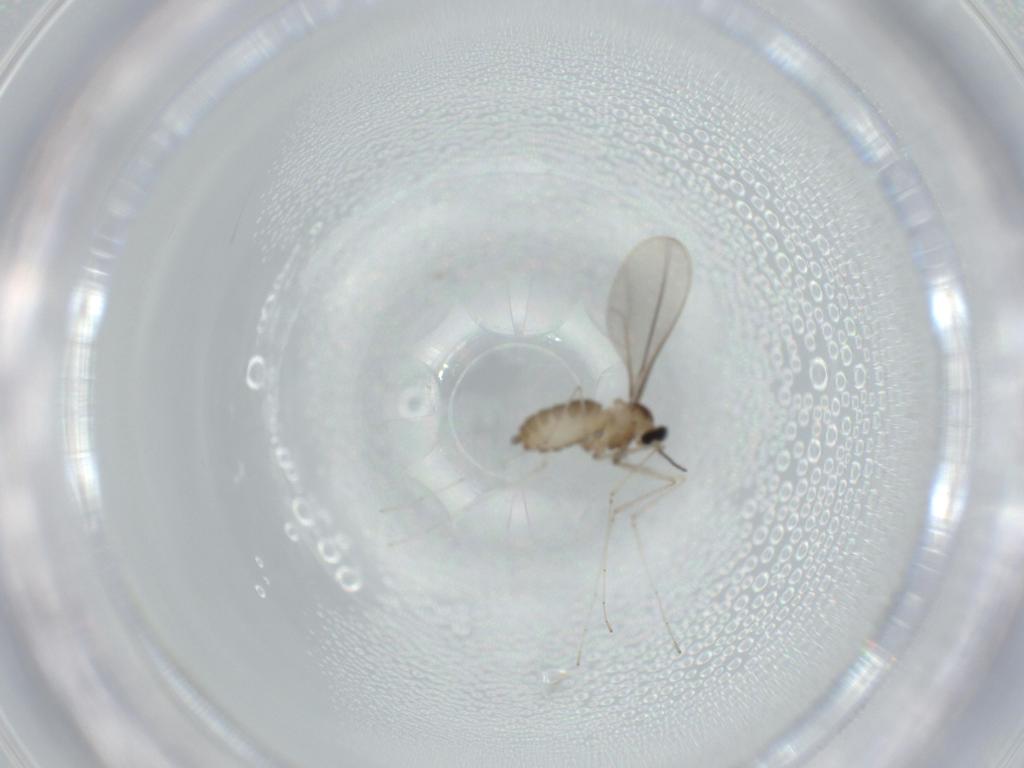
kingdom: Animalia
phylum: Arthropoda
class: Insecta
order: Diptera
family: Cecidomyiidae
